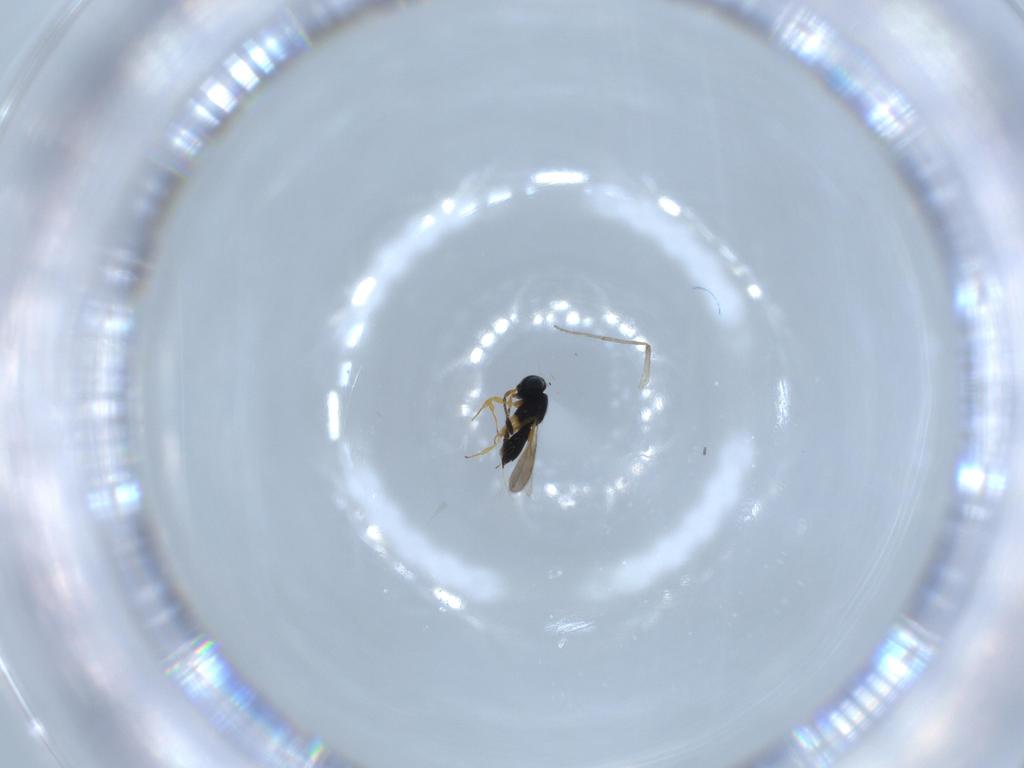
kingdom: Animalia
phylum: Arthropoda
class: Insecta
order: Hymenoptera
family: Scelionidae
